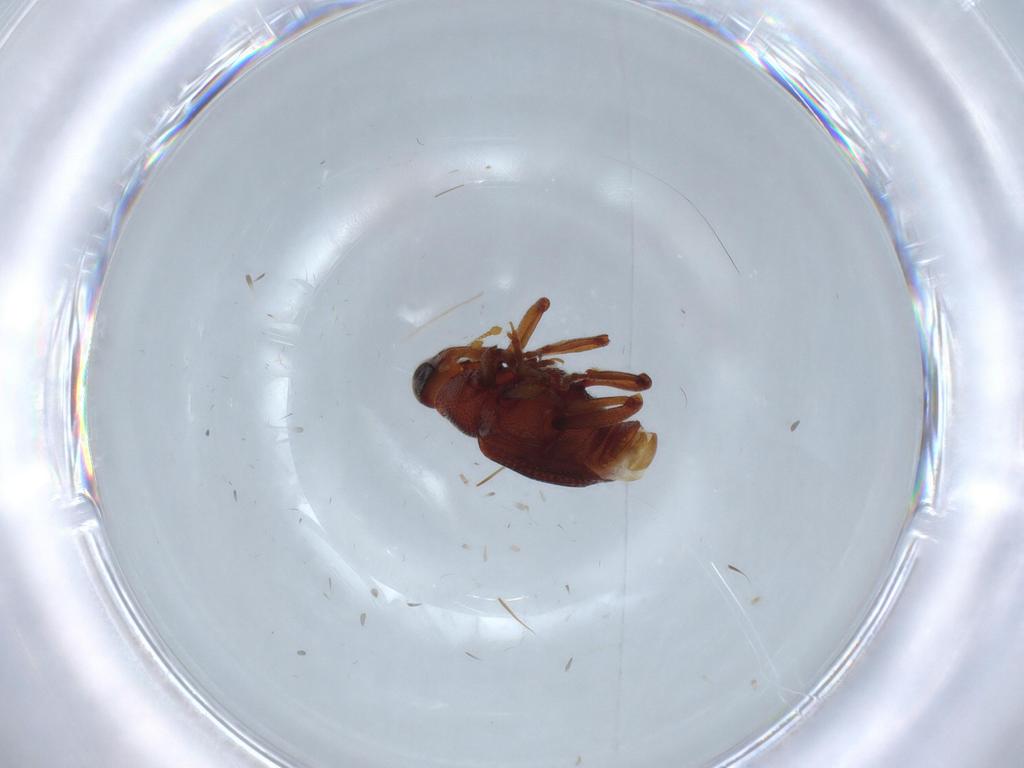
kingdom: Animalia
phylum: Arthropoda
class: Insecta
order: Coleoptera
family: Curculionidae
